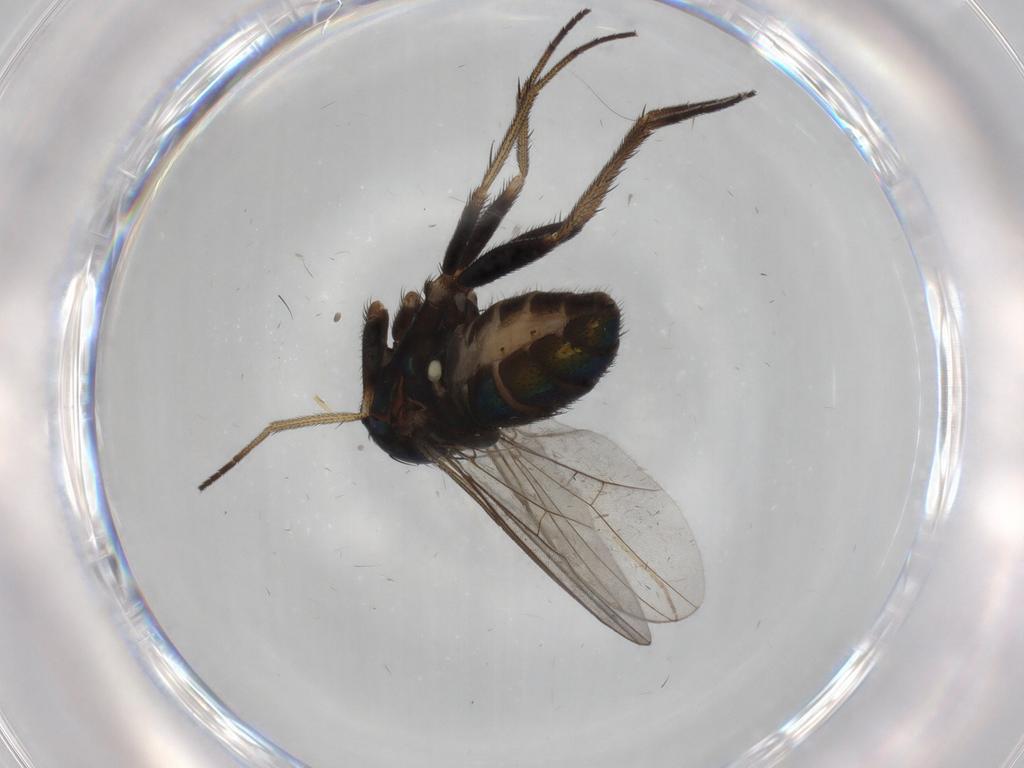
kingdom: Animalia
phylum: Arthropoda
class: Insecta
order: Diptera
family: Dolichopodidae
